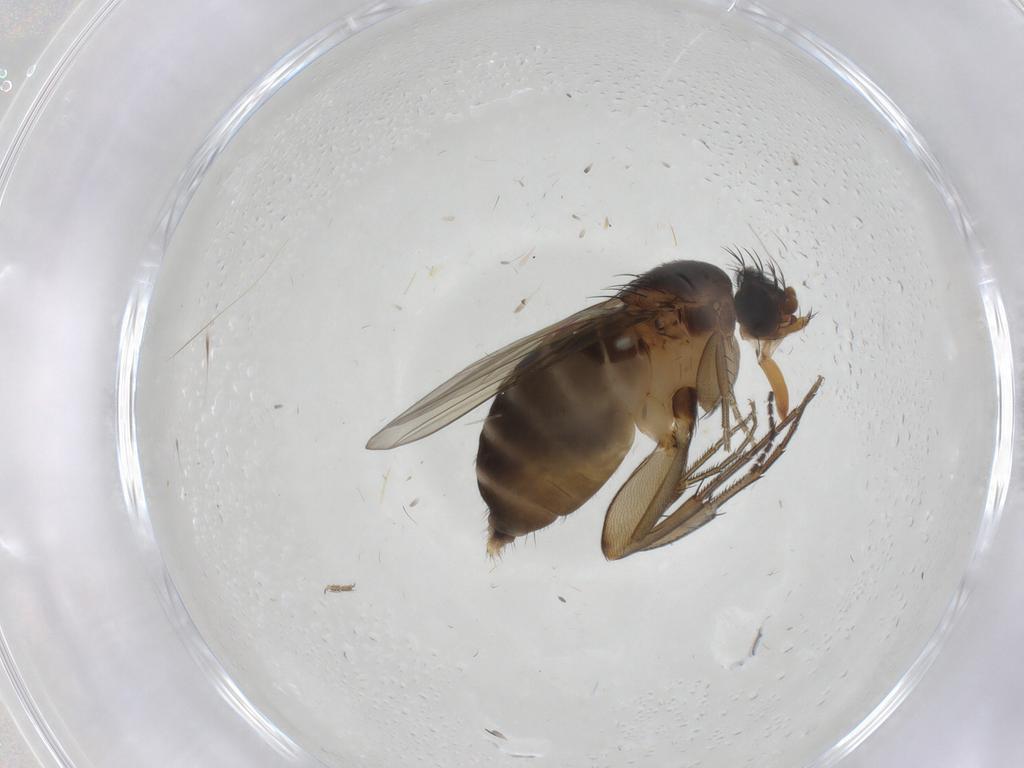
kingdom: Animalia
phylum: Arthropoda
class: Insecta
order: Diptera
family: Phoridae
